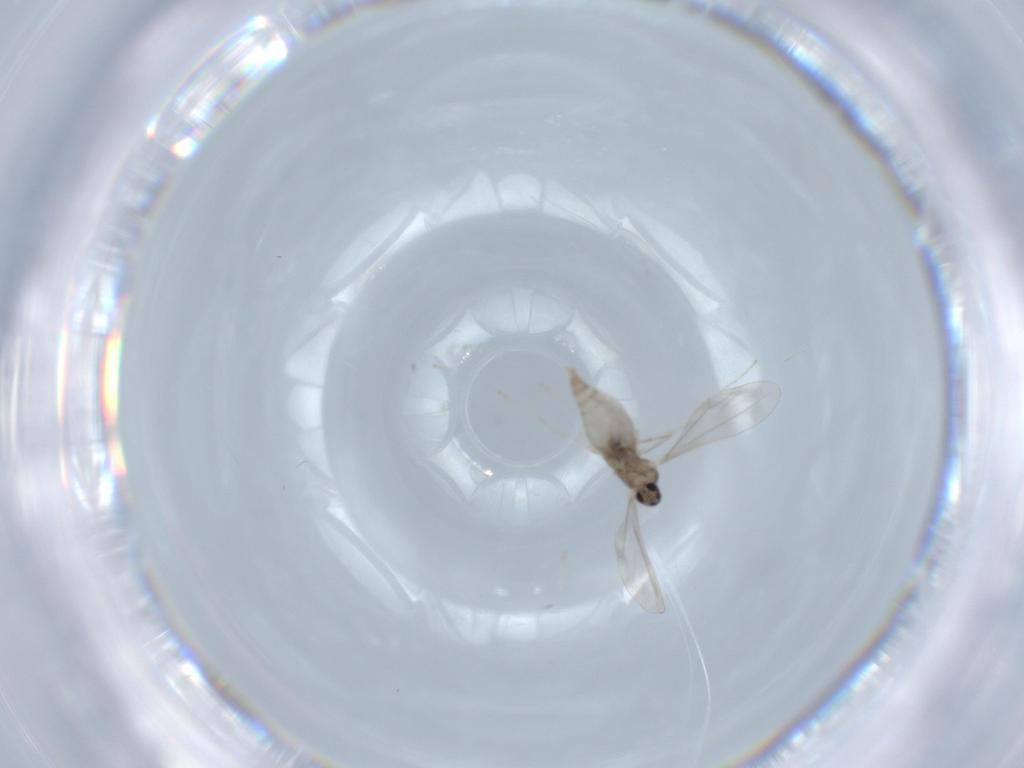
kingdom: Animalia
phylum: Arthropoda
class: Insecta
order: Diptera
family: Cecidomyiidae
